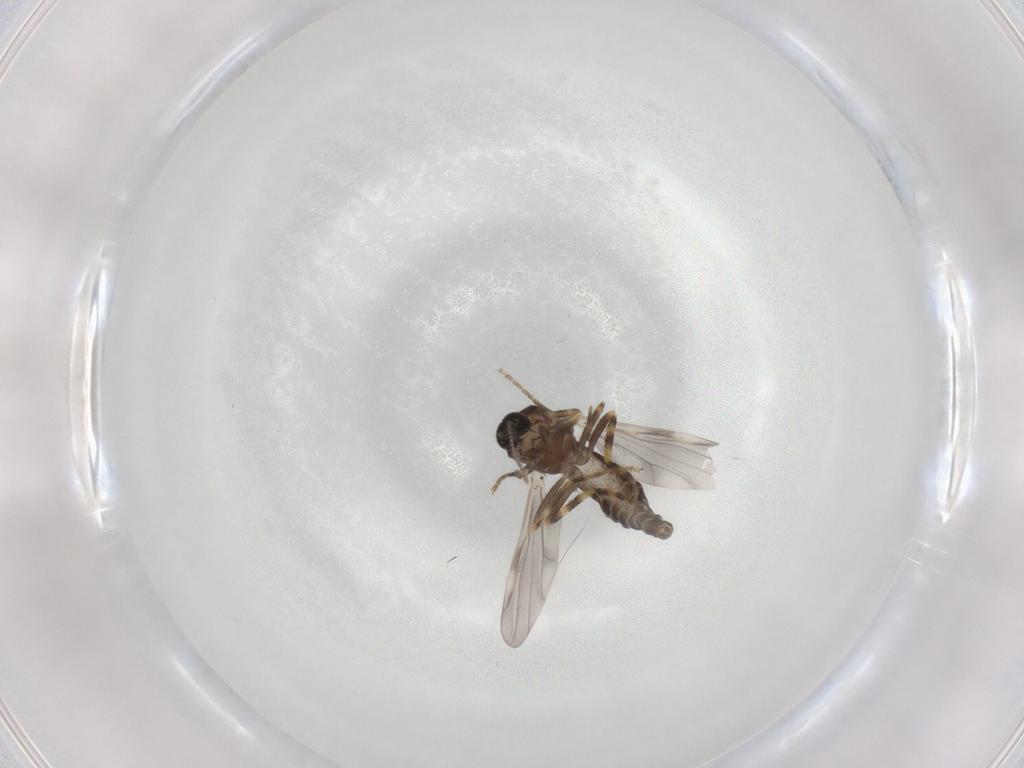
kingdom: Animalia
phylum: Arthropoda
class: Insecta
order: Diptera
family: Ceratopogonidae
